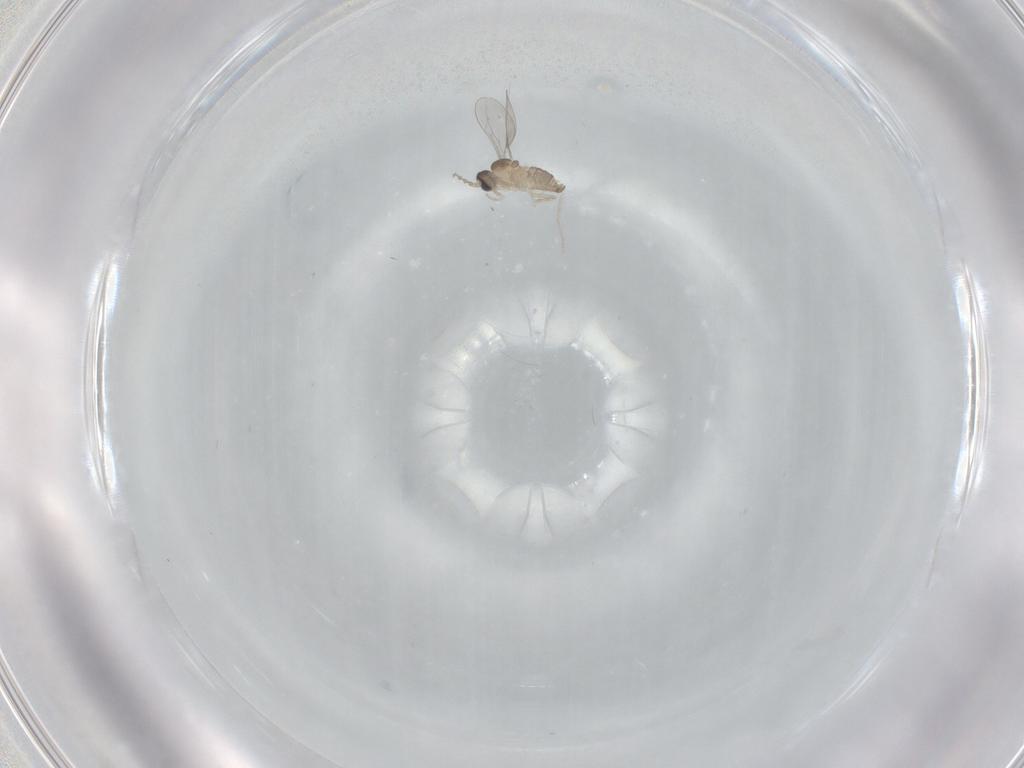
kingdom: Animalia
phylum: Arthropoda
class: Insecta
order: Diptera
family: Cecidomyiidae
